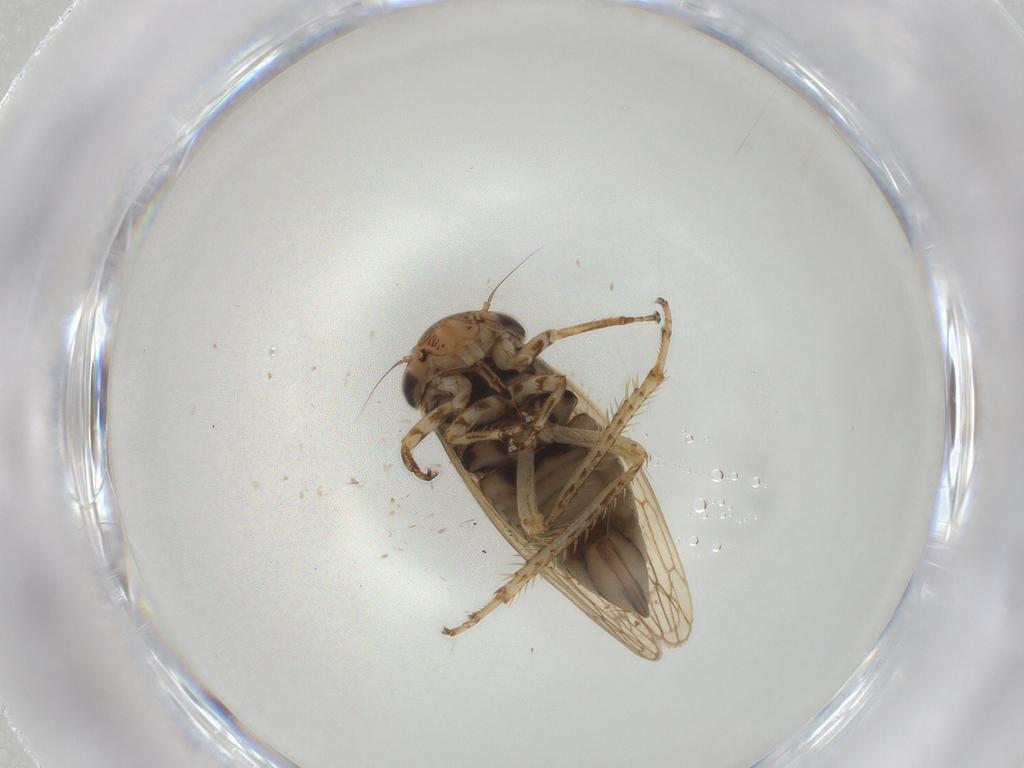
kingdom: Animalia
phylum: Arthropoda
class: Insecta
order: Hemiptera
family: Cicadellidae
